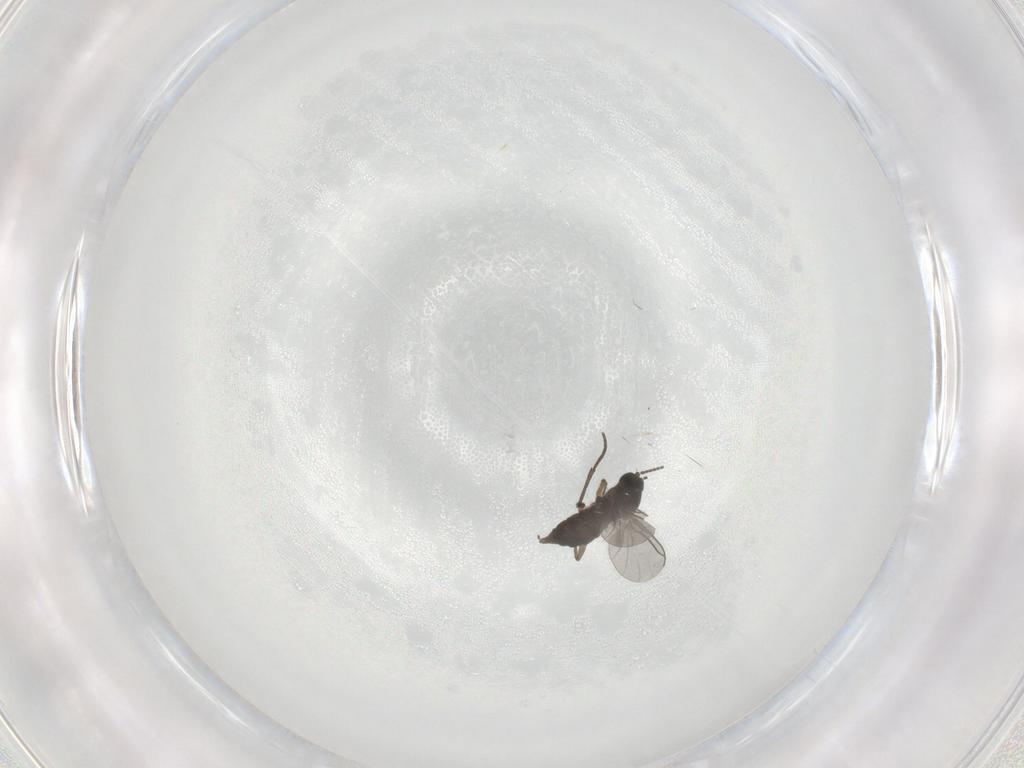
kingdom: Animalia
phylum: Arthropoda
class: Insecta
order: Diptera
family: Sciaridae
